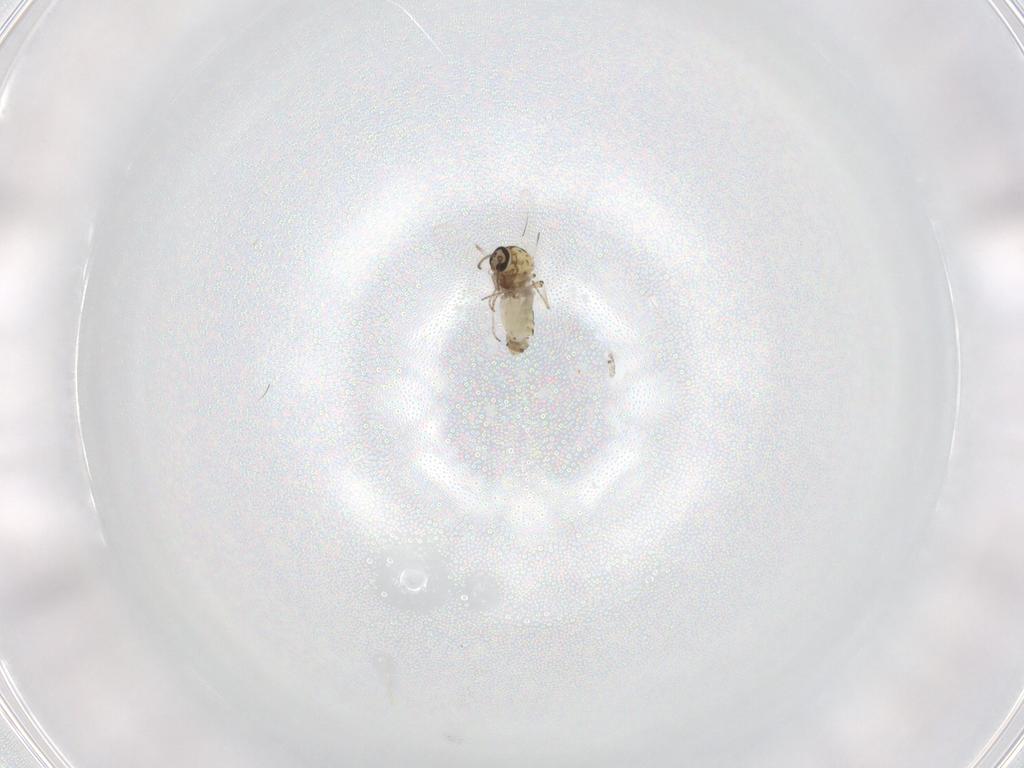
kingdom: Animalia
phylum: Arthropoda
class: Insecta
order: Diptera
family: Ceratopogonidae
